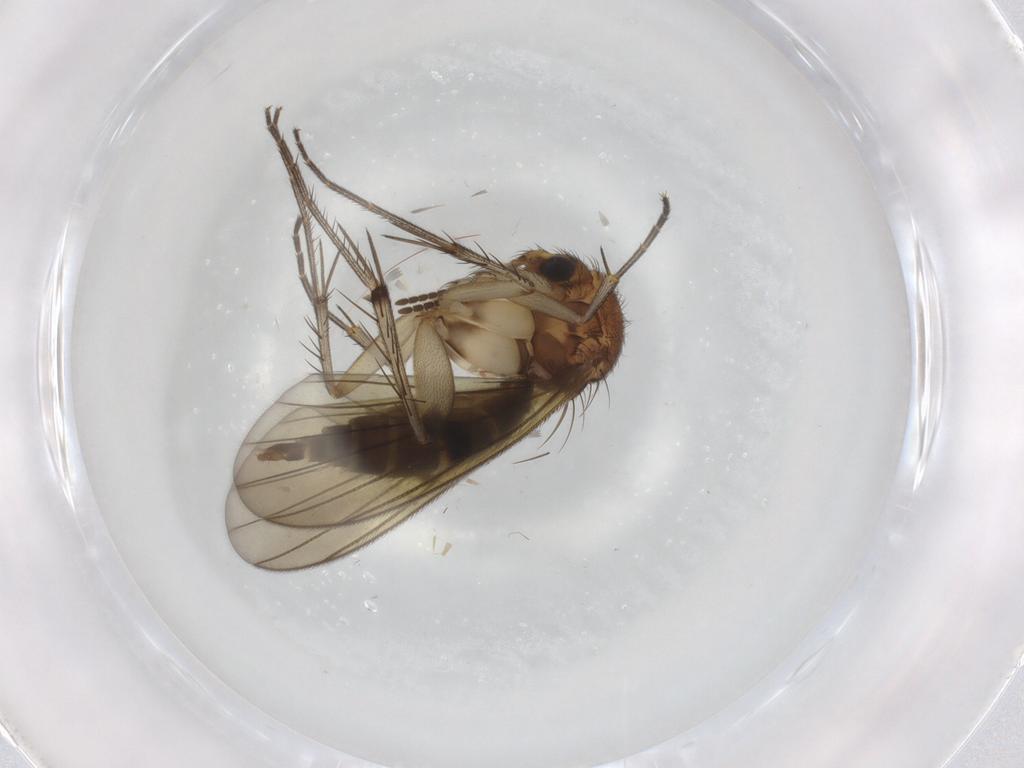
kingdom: Animalia
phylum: Arthropoda
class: Insecta
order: Diptera
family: Mycetophilidae
